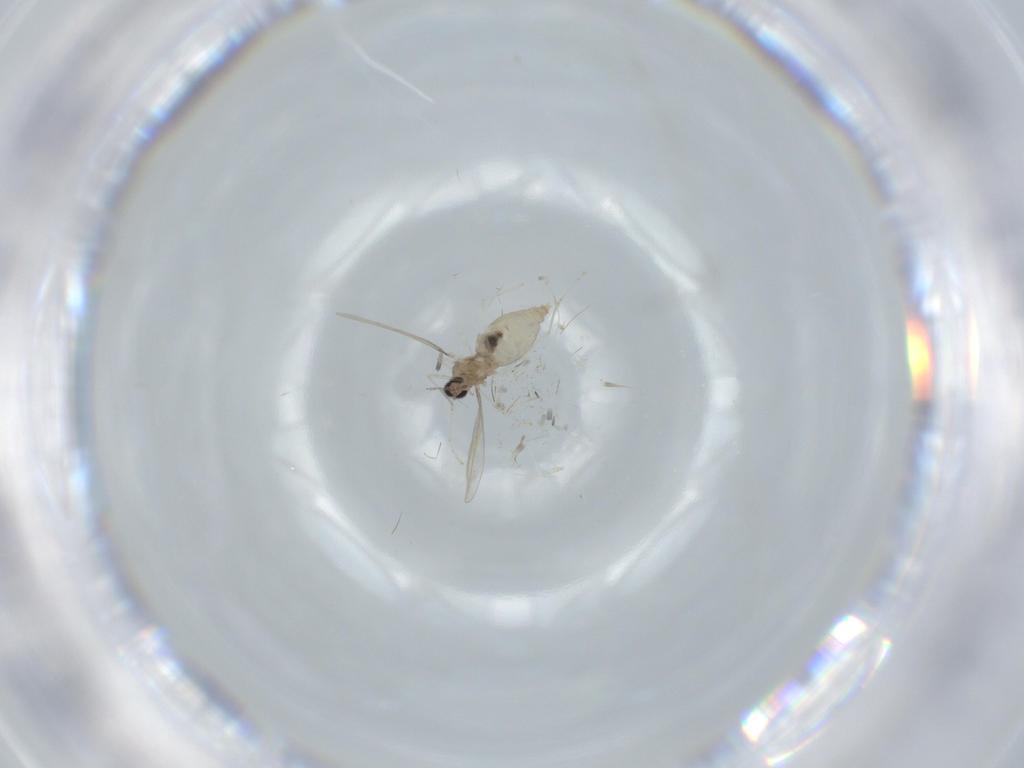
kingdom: Animalia
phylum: Arthropoda
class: Insecta
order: Diptera
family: Cecidomyiidae
